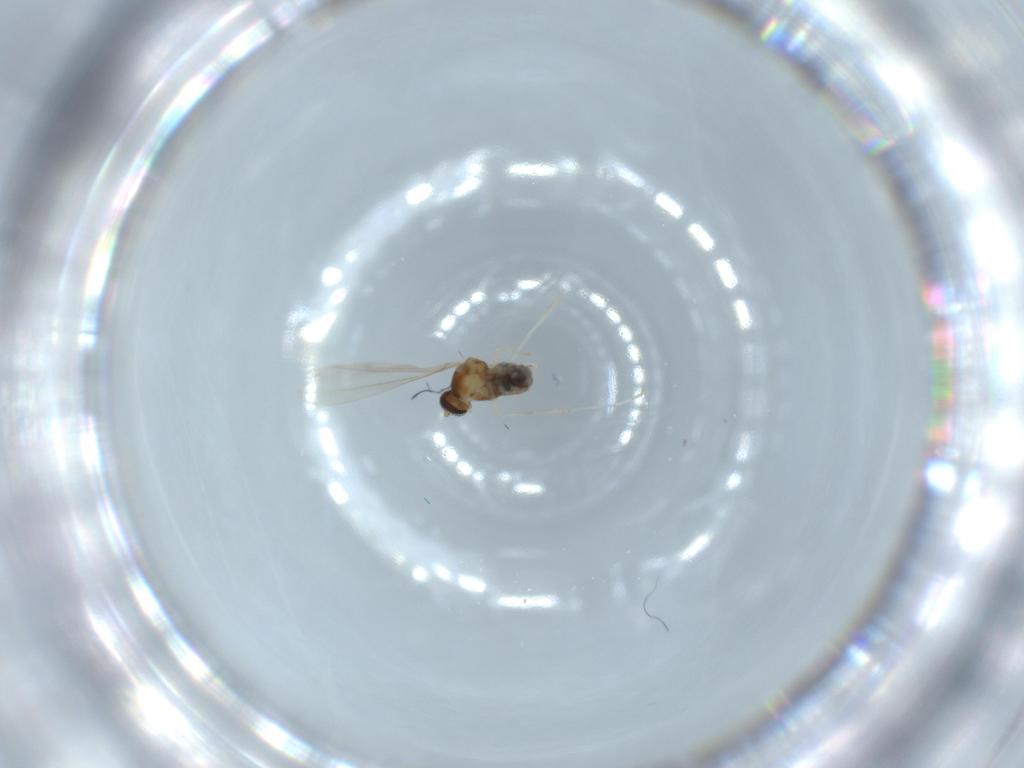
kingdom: Animalia
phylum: Arthropoda
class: Insecta
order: Diptera
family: Cecidomyiidae
